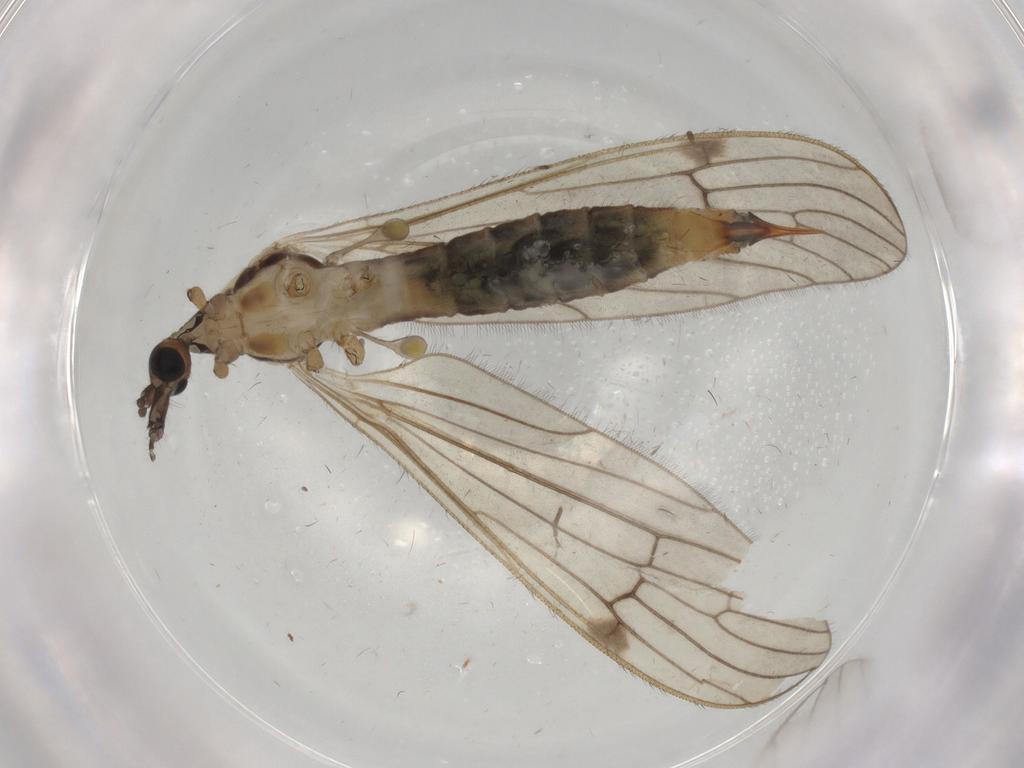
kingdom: Animalia
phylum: Arthropoda
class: Insecta
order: Diptera
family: Limoniidae
